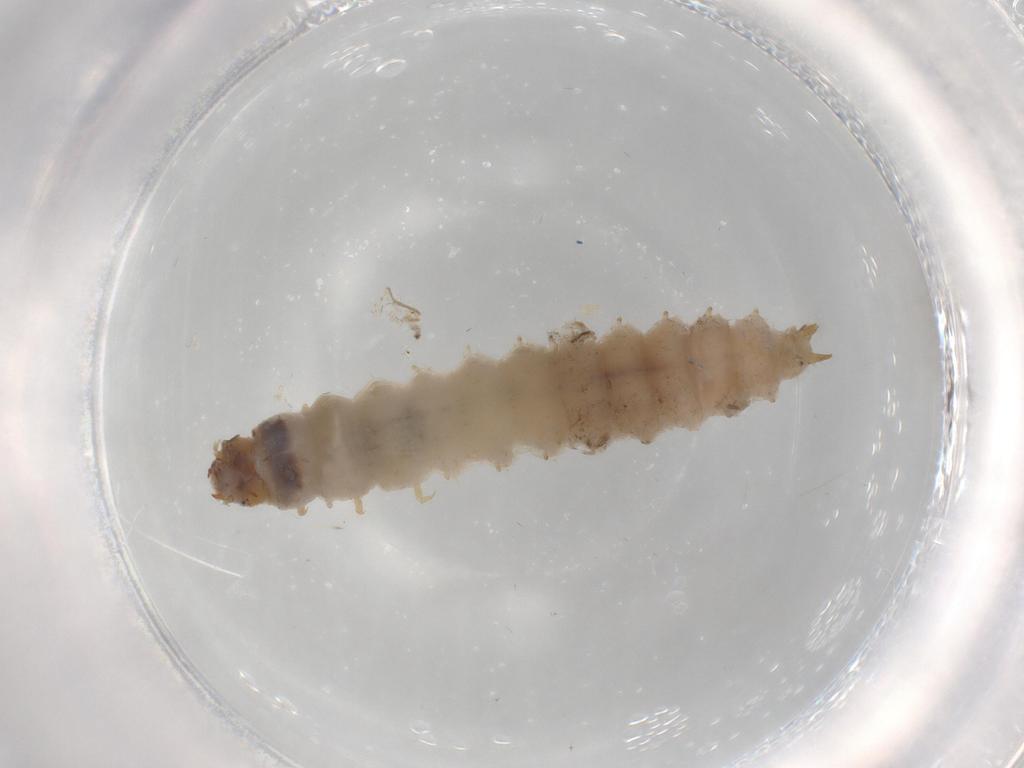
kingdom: Animalia
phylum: Arthropoda
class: Insecta
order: Coleoptera
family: Nitidulidae
